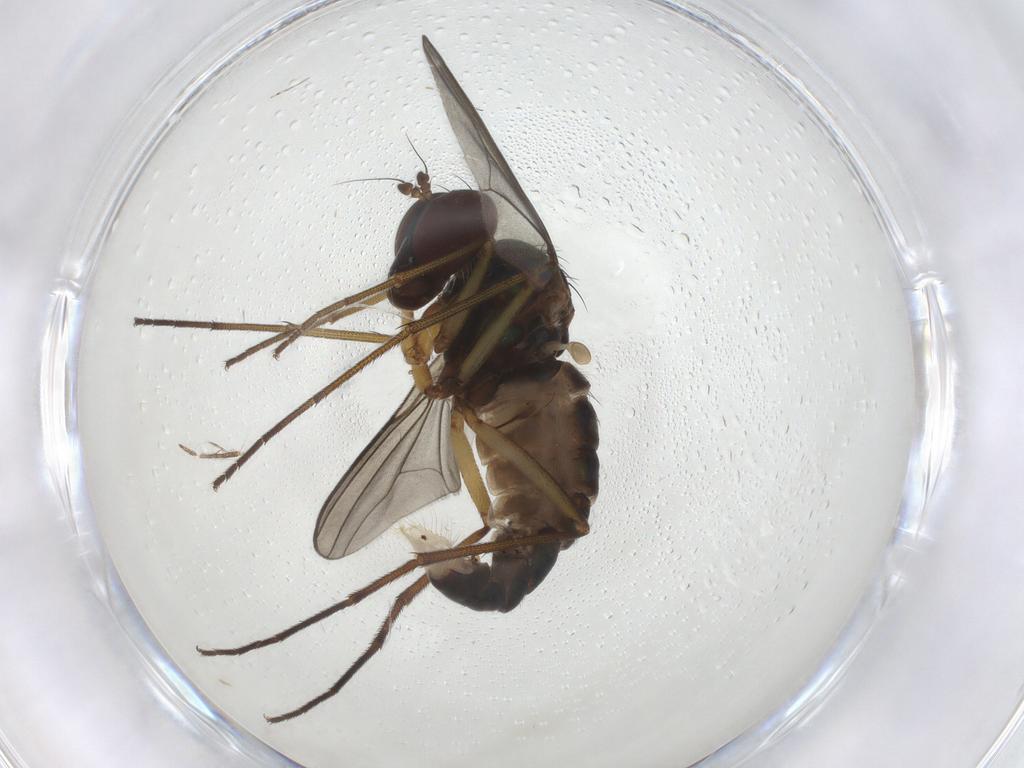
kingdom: Animalia
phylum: Arthropoda
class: Insecta
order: Diptera
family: Dolichopodidae
